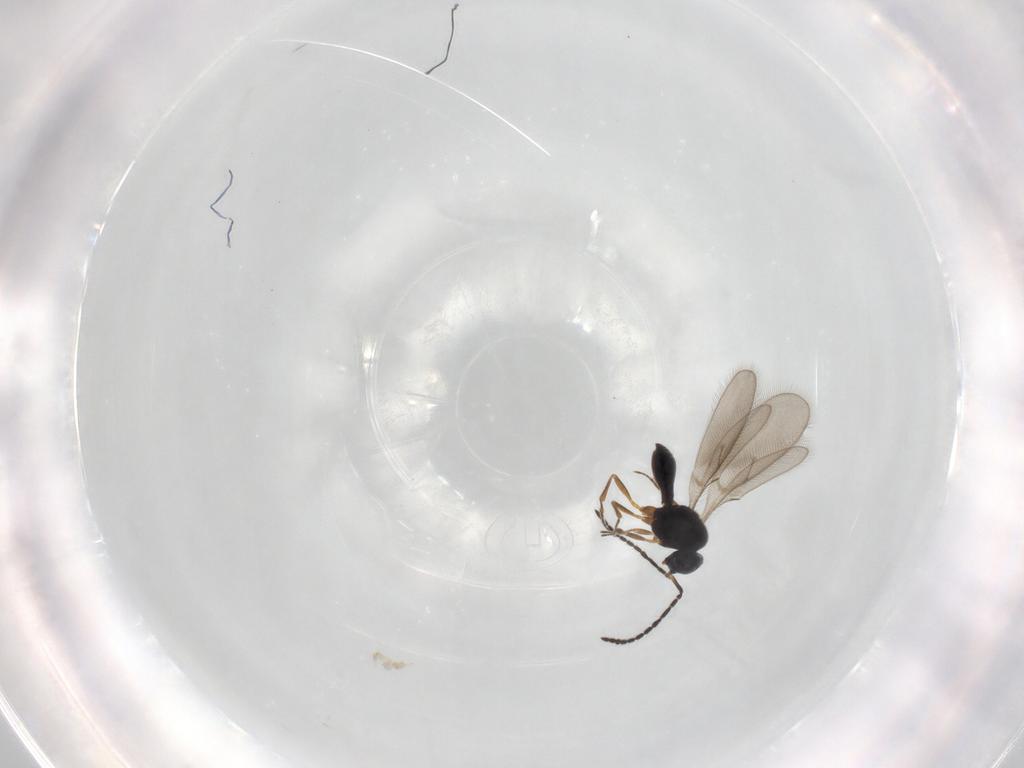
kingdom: Animalia
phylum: Arthropoda
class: Insecta
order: Hymenoptera
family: Scelionidae
